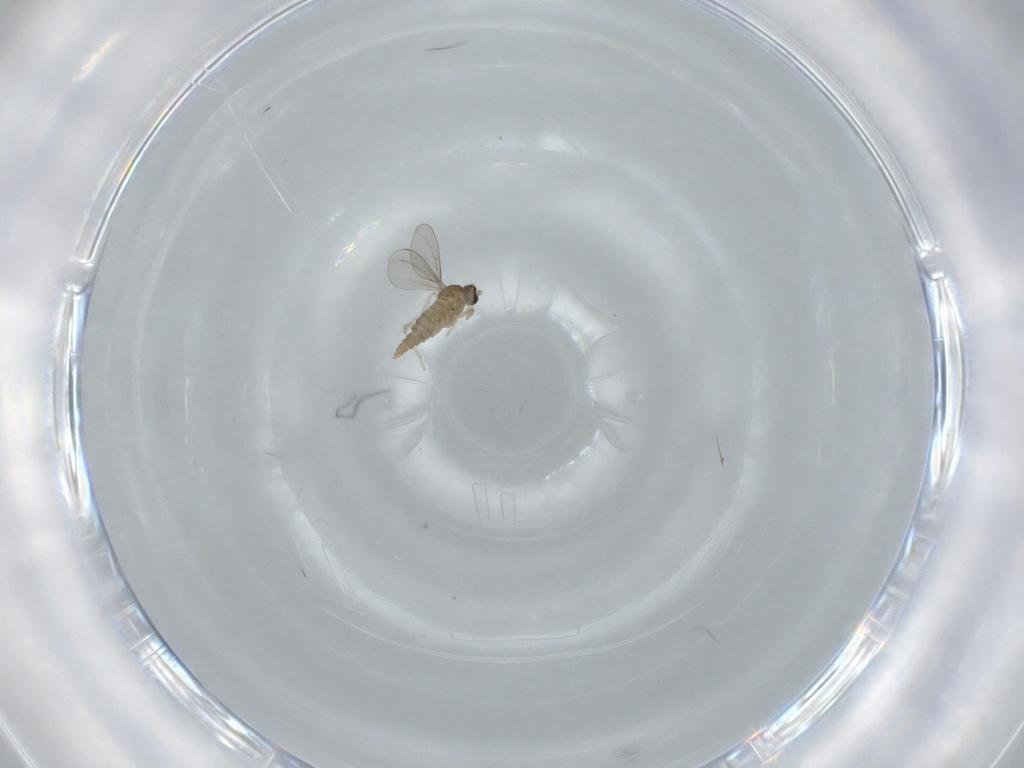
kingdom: Animalia
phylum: Arthropoda
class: Insecta
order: Diptera
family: Cecidomyiidae
